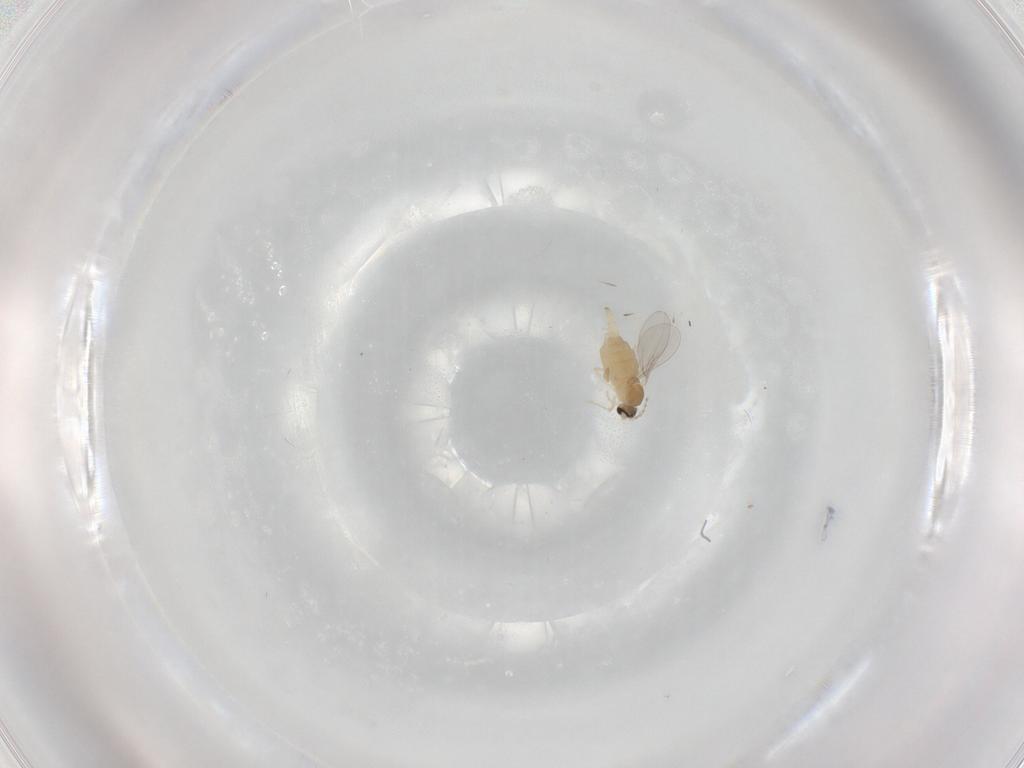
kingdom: Animalia
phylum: Arthropoda
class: Insecta
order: Diptera
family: Cecidomyiidae
